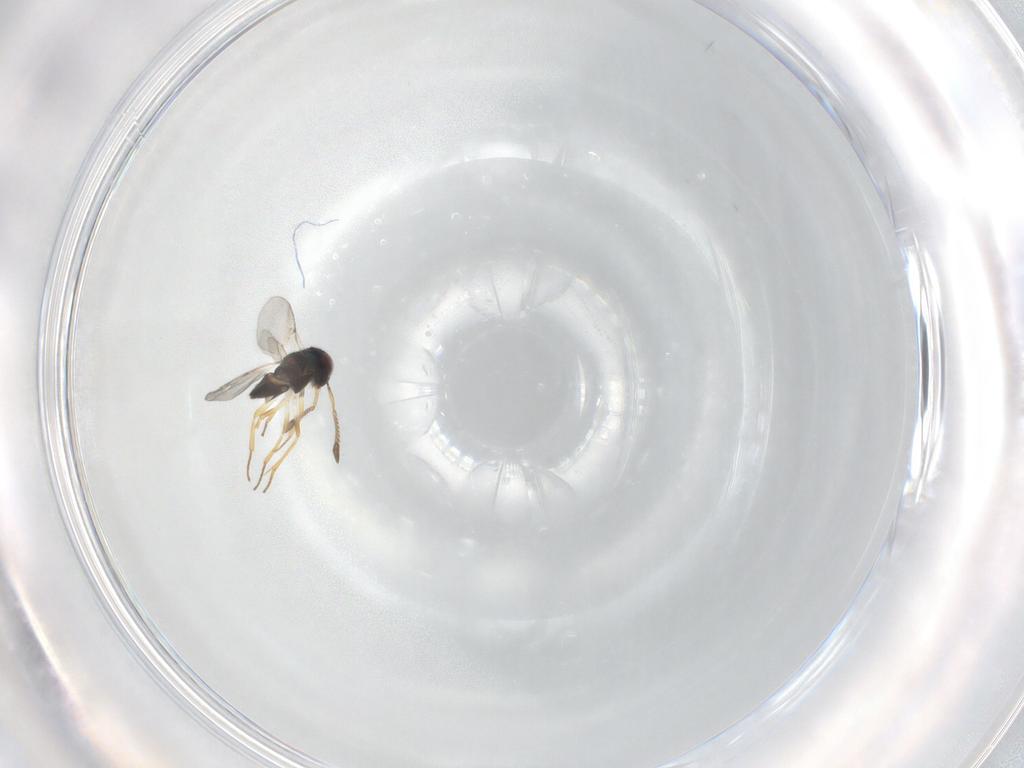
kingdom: Animalia
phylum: Arthropoda
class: Insecta
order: Hymenoptera
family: Encyrtidae
